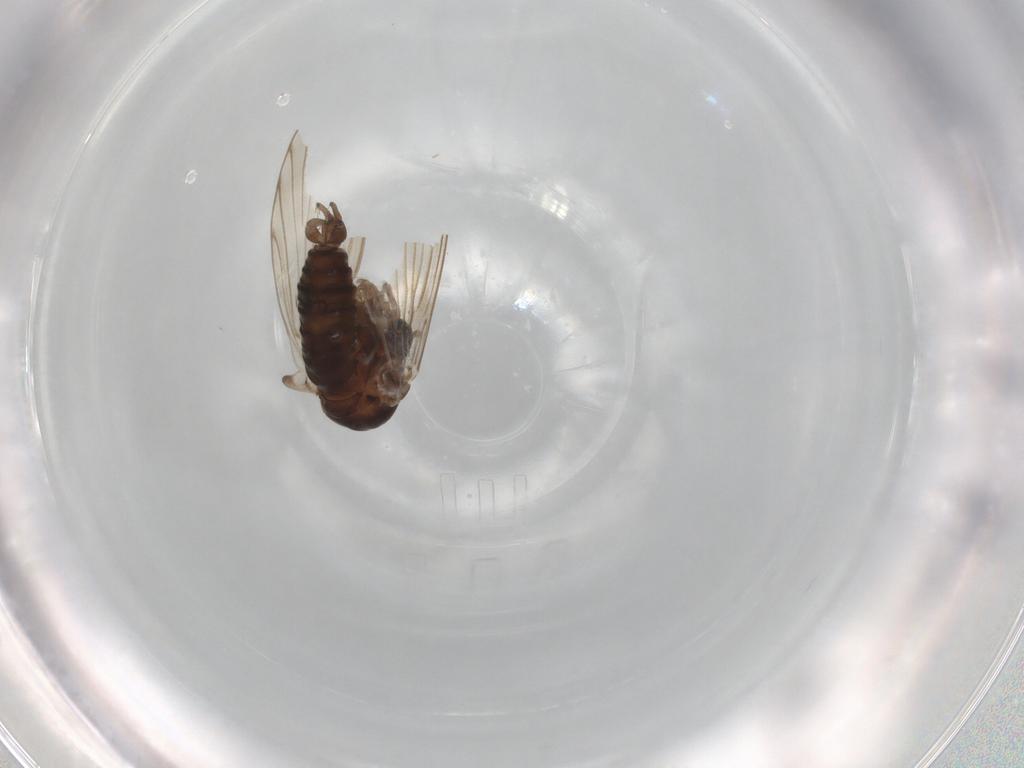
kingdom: Animalia
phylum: Arthropoda
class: Insecta
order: Diptera
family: Psychodidae
